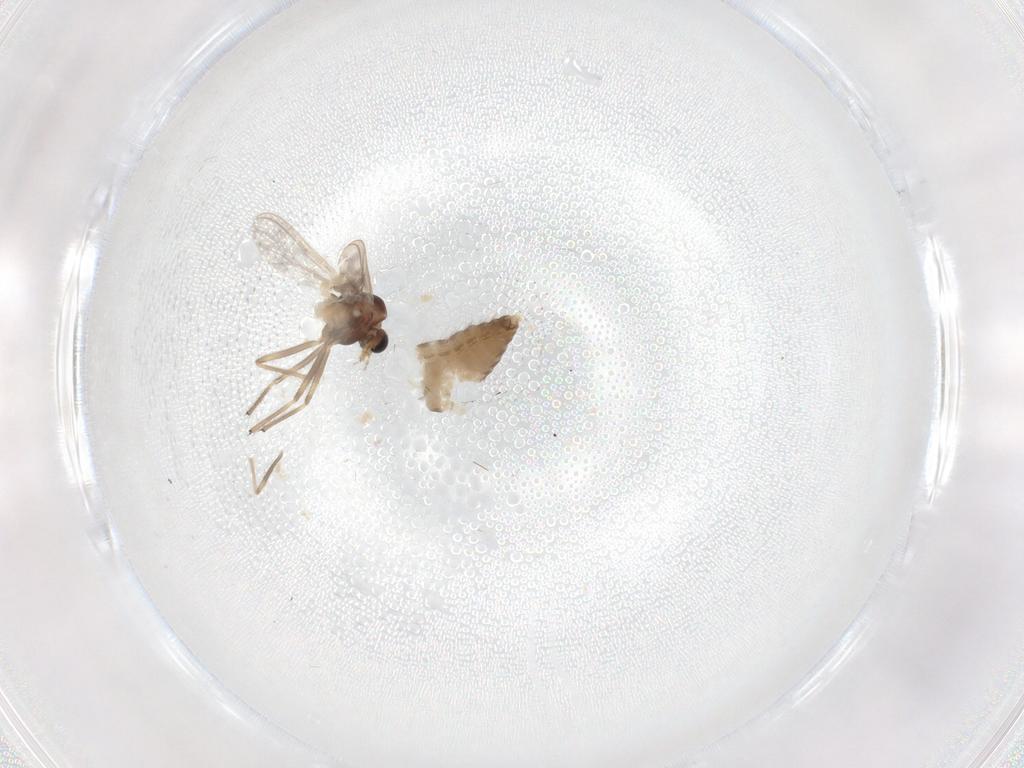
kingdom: Animalia
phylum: Arthropoda
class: Insecta
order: Diptera
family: Chironomidae
